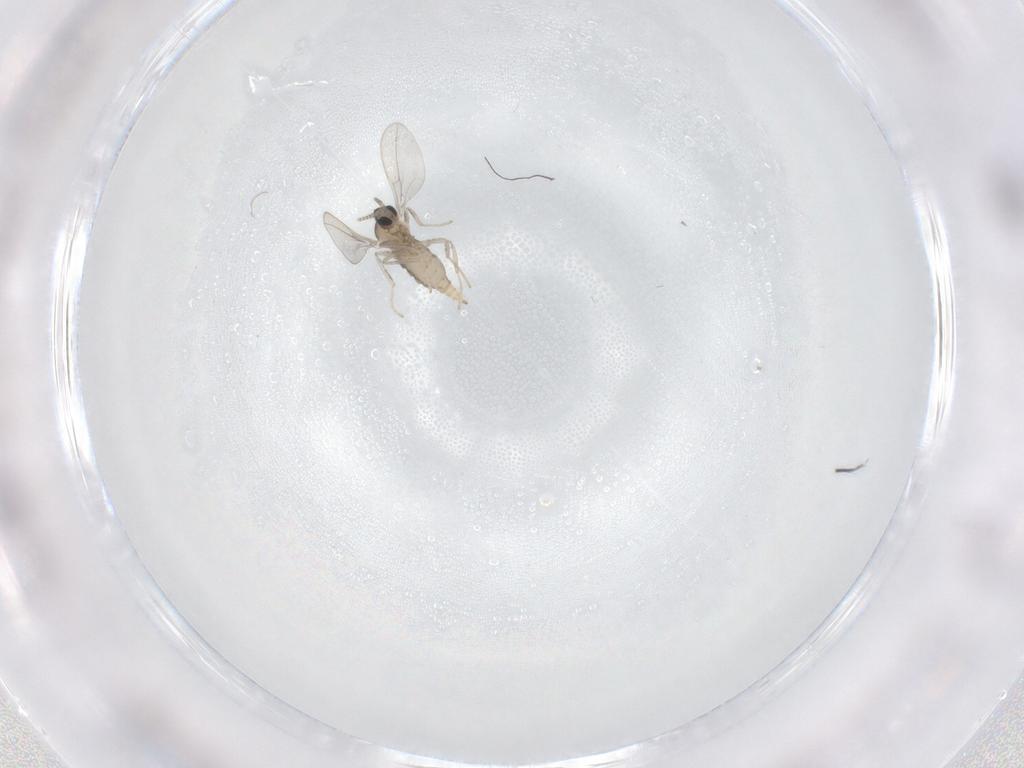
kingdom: Animalia
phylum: Arthropoda
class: Insecta
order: Diptera
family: Cecidomyiidae
